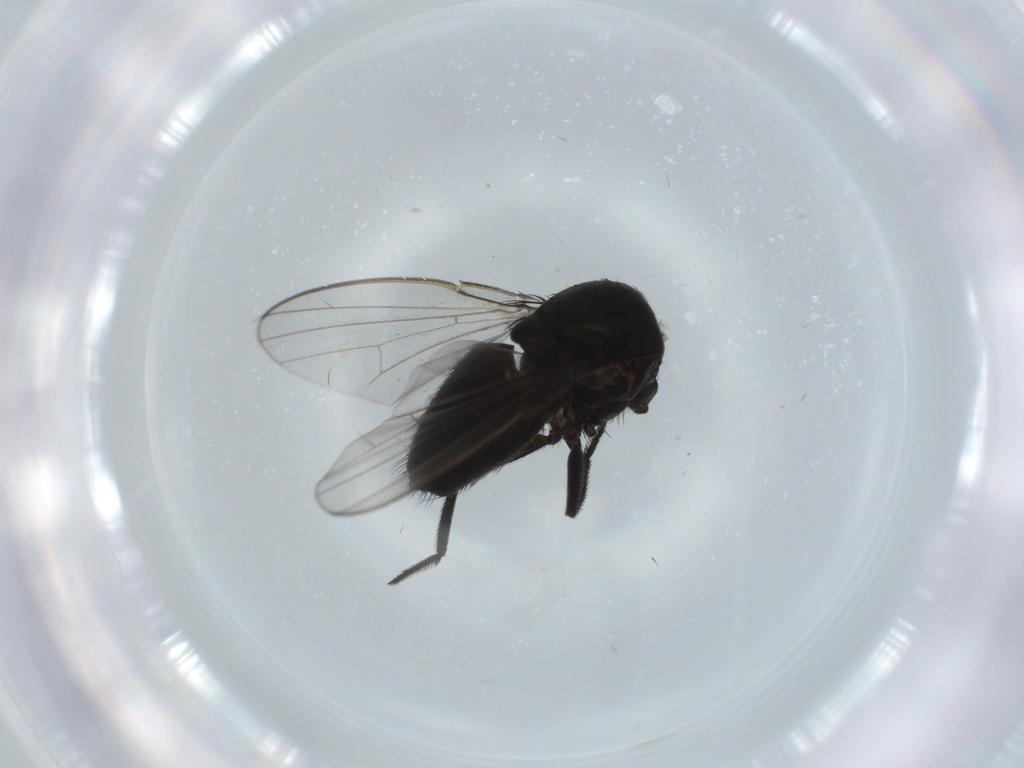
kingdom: Animalia
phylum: Arthropoda
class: Insecta
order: Diptera
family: Milichiidae
